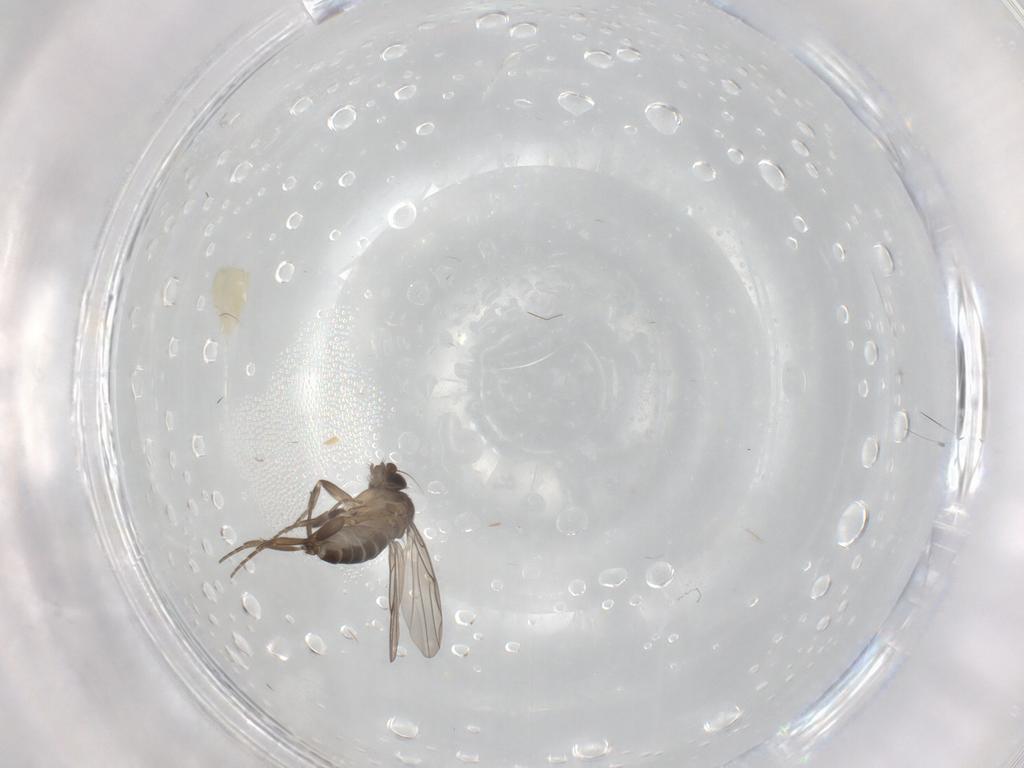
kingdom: Animalia
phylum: Arthropoda
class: Insecta
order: Diptera
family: Phoridae
